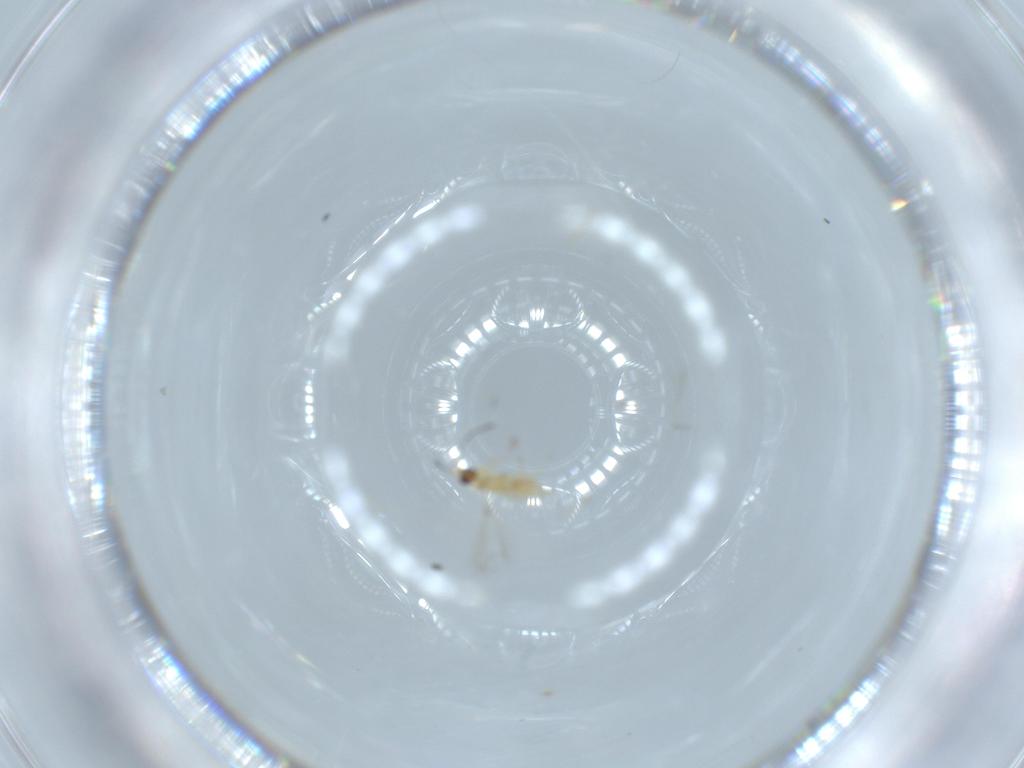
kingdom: Animalia
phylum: Arthropoda
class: Insecta
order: Hymenoptera
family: Mymaridae
